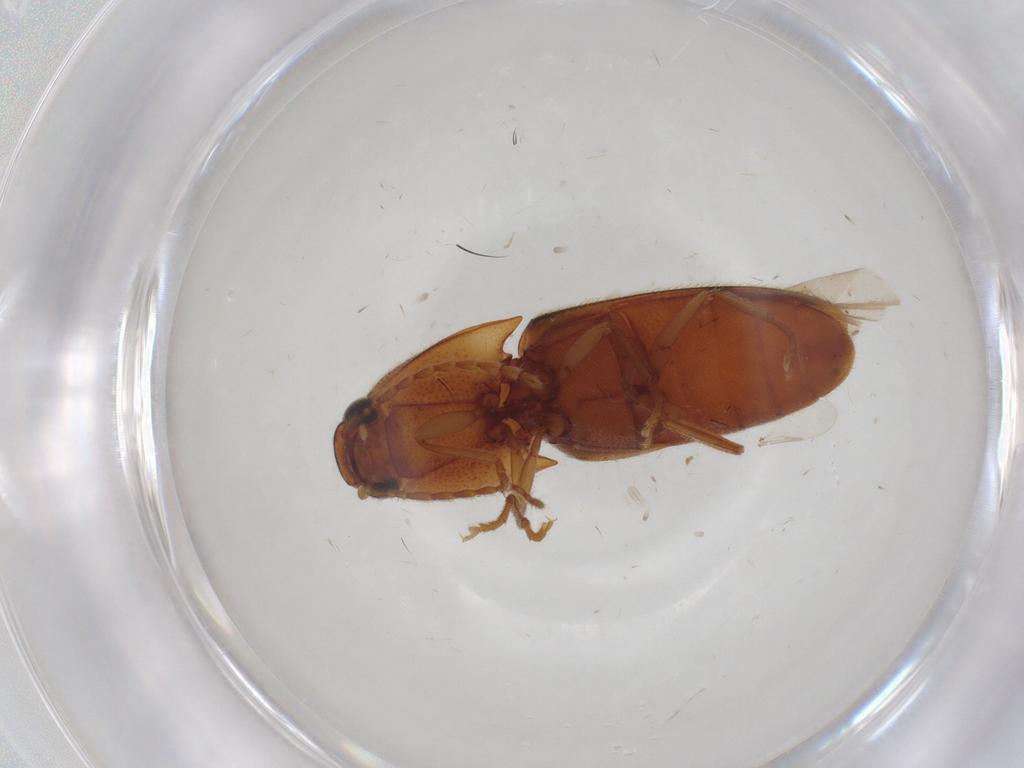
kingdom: Animalia
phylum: Arthropoda
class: Insecta
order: Coleoptera
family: Elateridae
